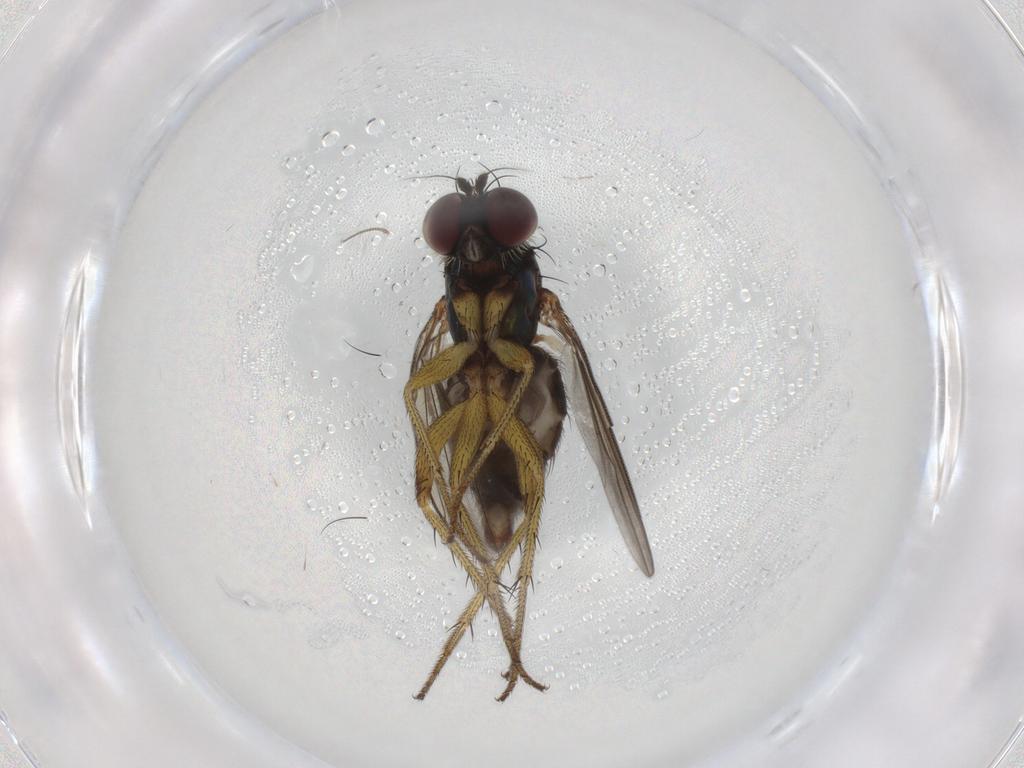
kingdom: Animalia
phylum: Arthropoda
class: Insecta
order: Diptera
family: Dolichopodidae
